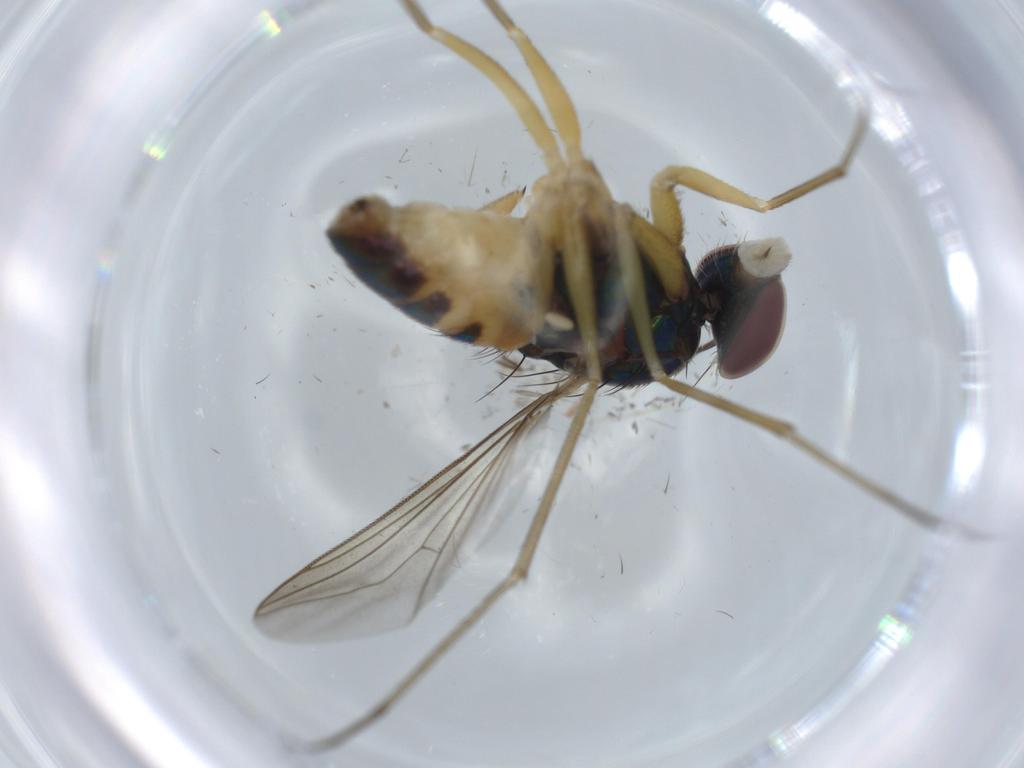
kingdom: Animalia
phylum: Arthropoda
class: Insecta
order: Diptera
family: Mycetophilidae
